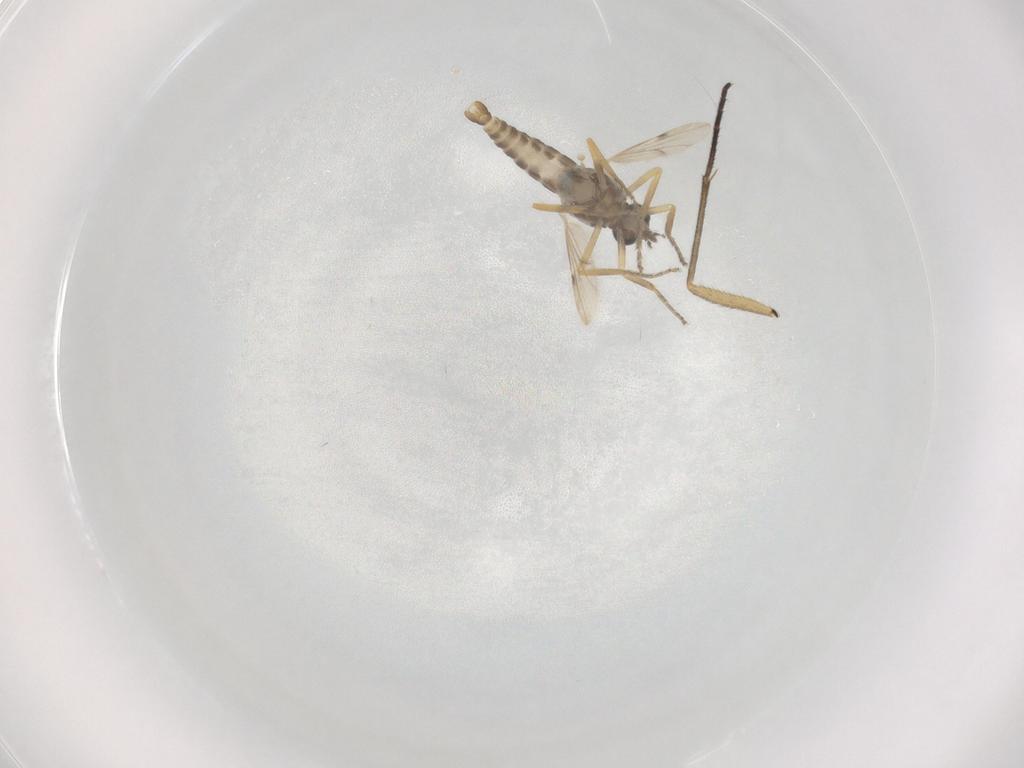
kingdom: Animalia
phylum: Arthropoda
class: Insecta
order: Diptera
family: Ceratopogonidae
